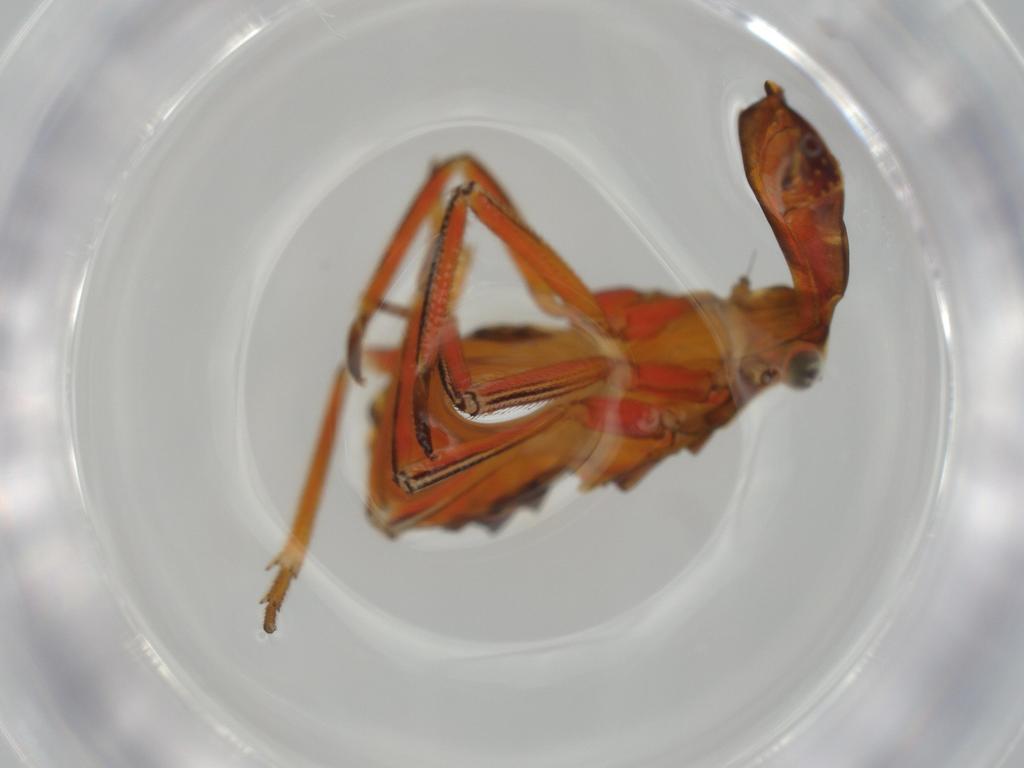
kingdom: Animalia
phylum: Arthropoda
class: Insecta
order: Hemiptera
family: Fulgoridae
